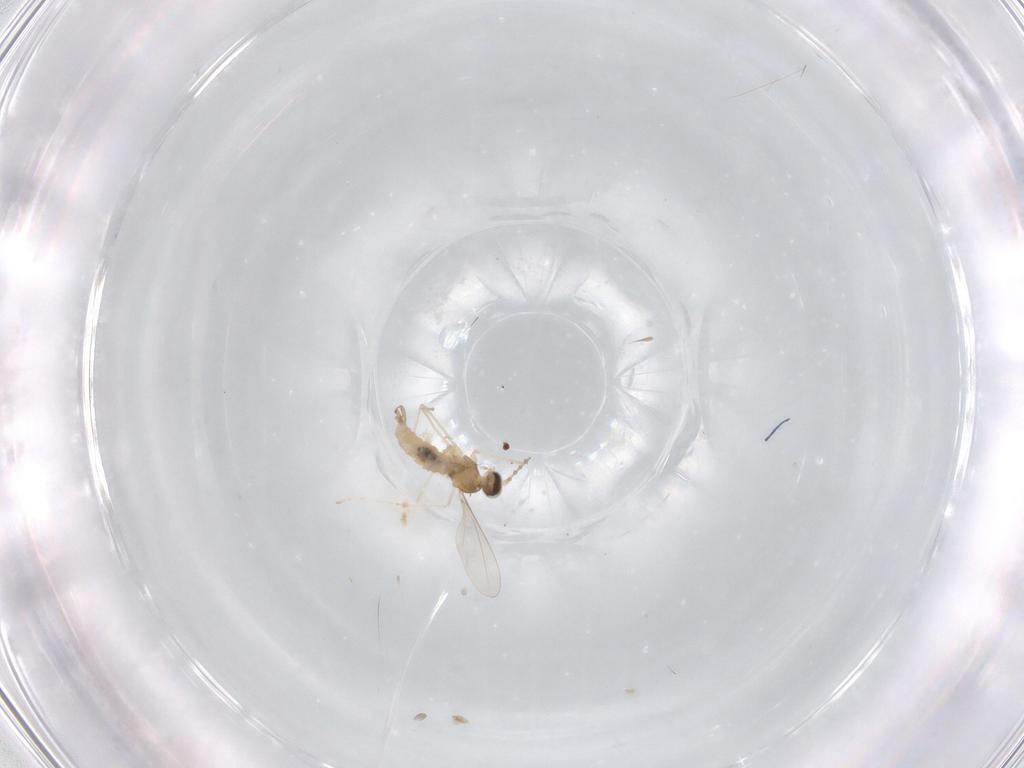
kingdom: Animalia
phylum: Arthropoda
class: Insecta
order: Diptera
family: Cecidomyiidae
